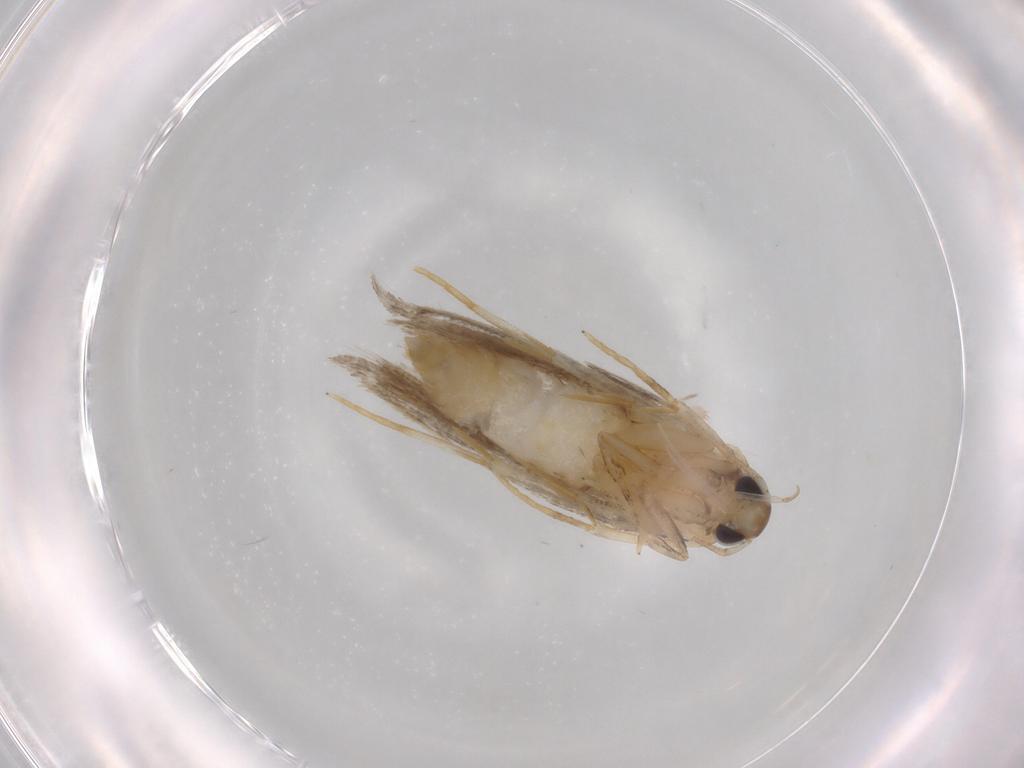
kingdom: Animalia
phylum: Arthropoda
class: Insecta
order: Lepidoptera
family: Autostichidae
